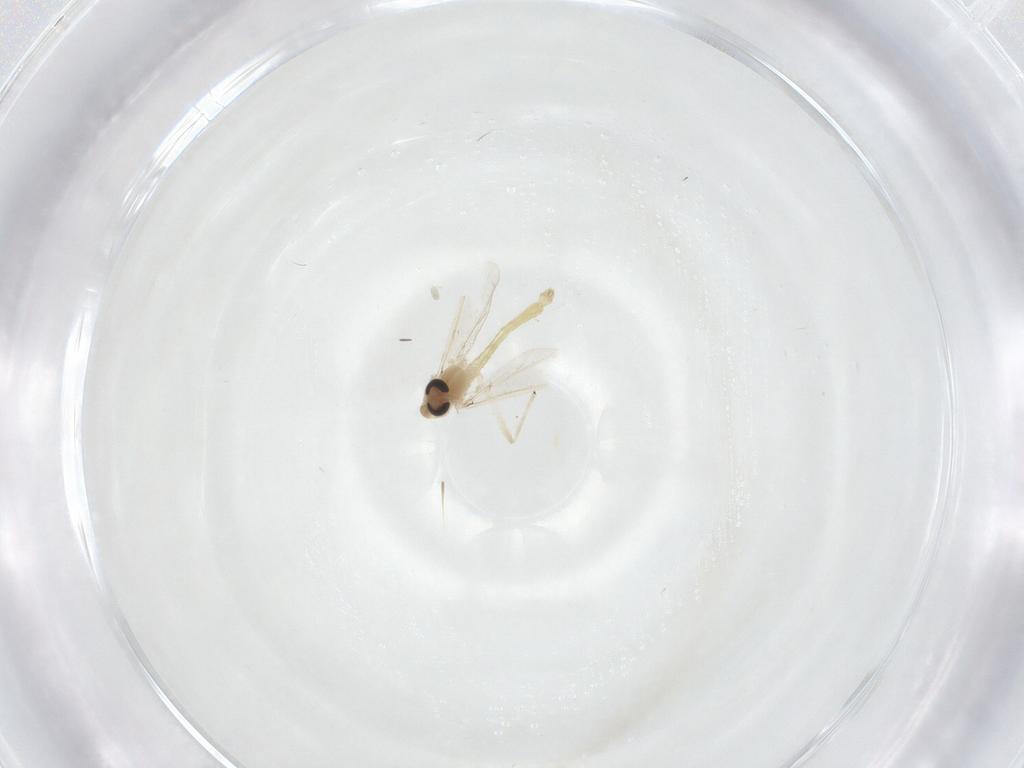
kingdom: Animalia
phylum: Arthropoda
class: Insecta
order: Diptera
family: Chironomidae
